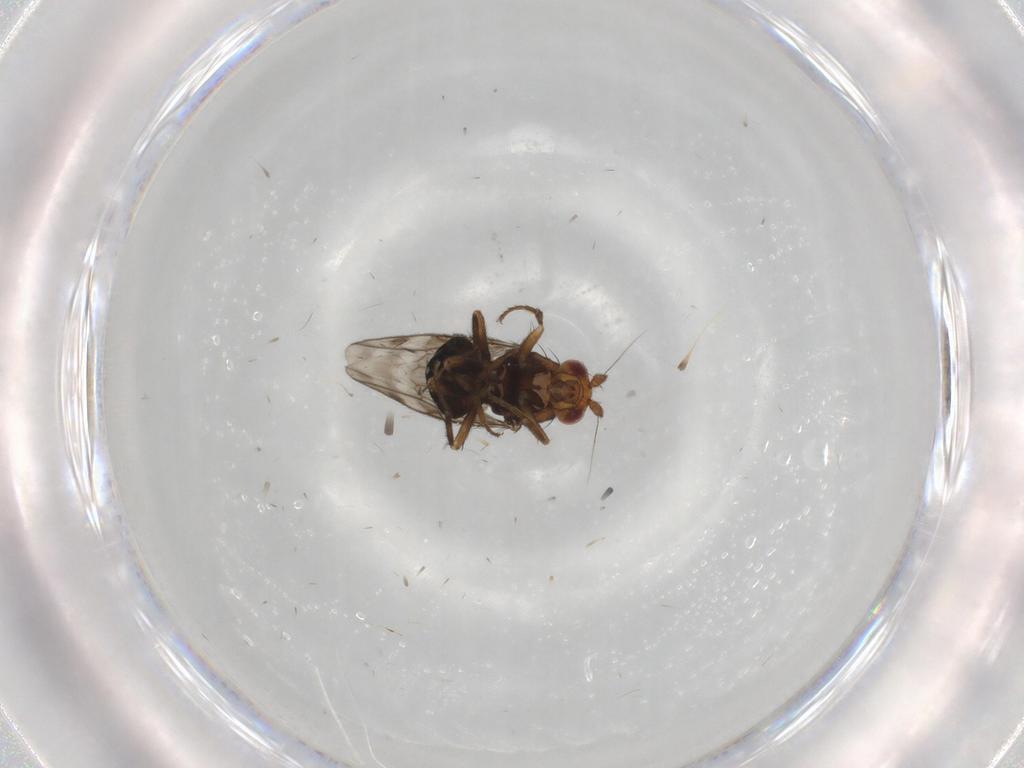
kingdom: Animalia
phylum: Arthropoda
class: Insecta
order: Diptera
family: Sphaeroceridae
